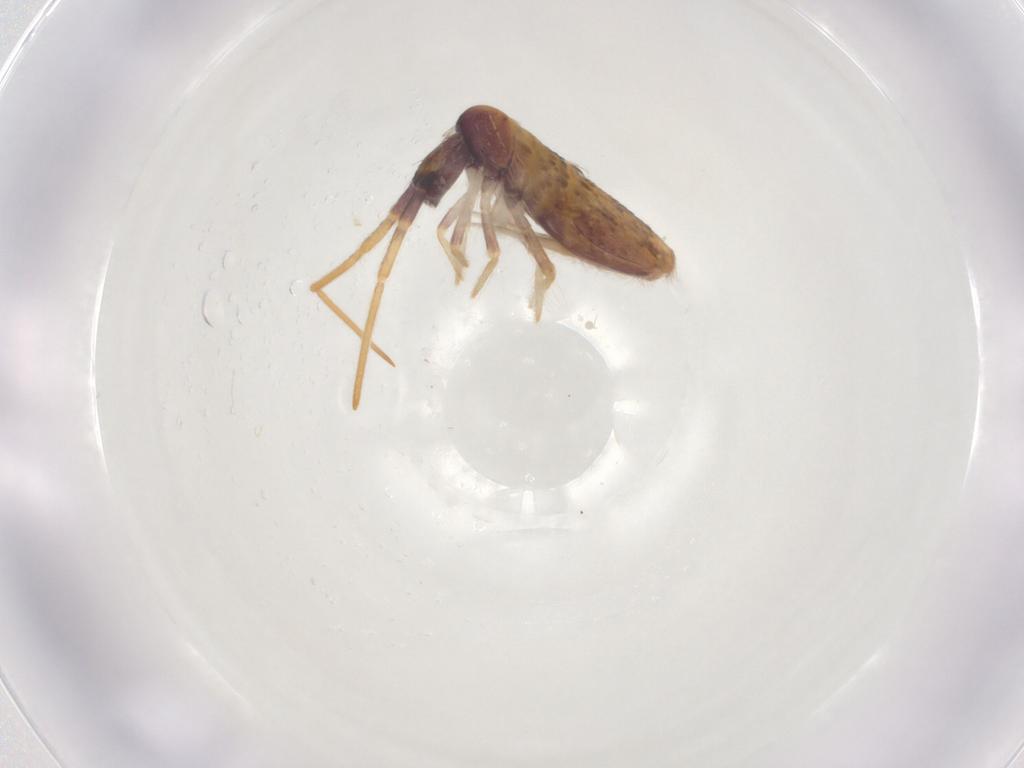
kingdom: Animalia
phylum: Arthropoda
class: Collembola
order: Entomobryomorpha
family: Entomobryidae
